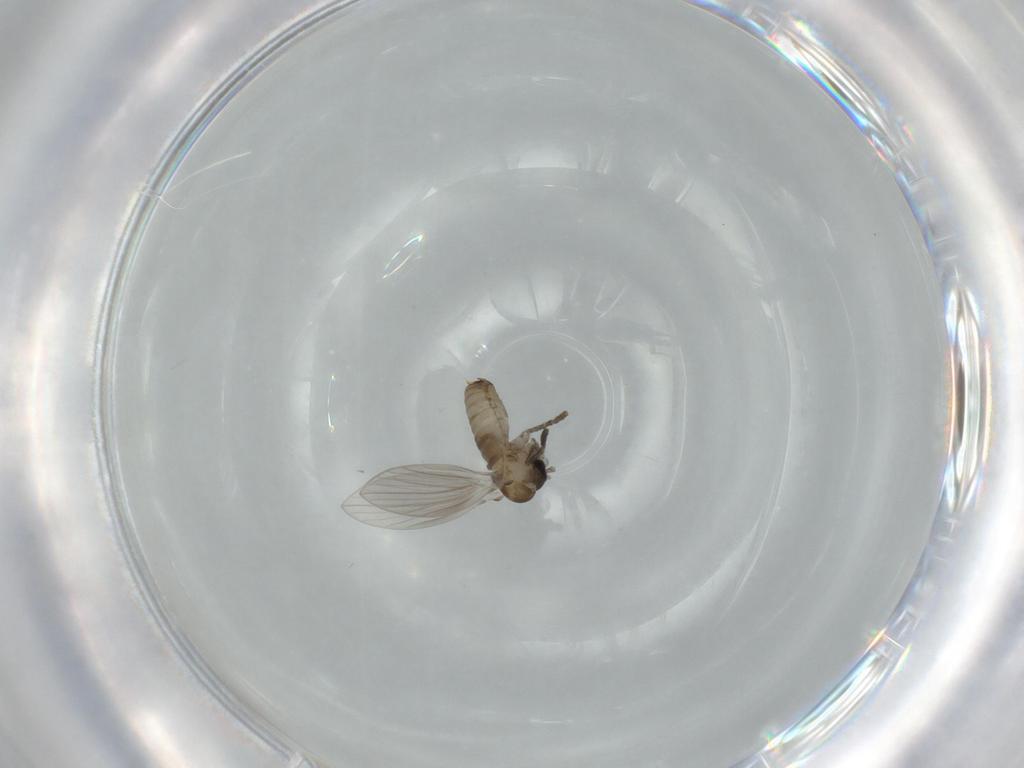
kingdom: Animalia
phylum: Arthropoda
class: Insecta
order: Diptera
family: Psychodidae
